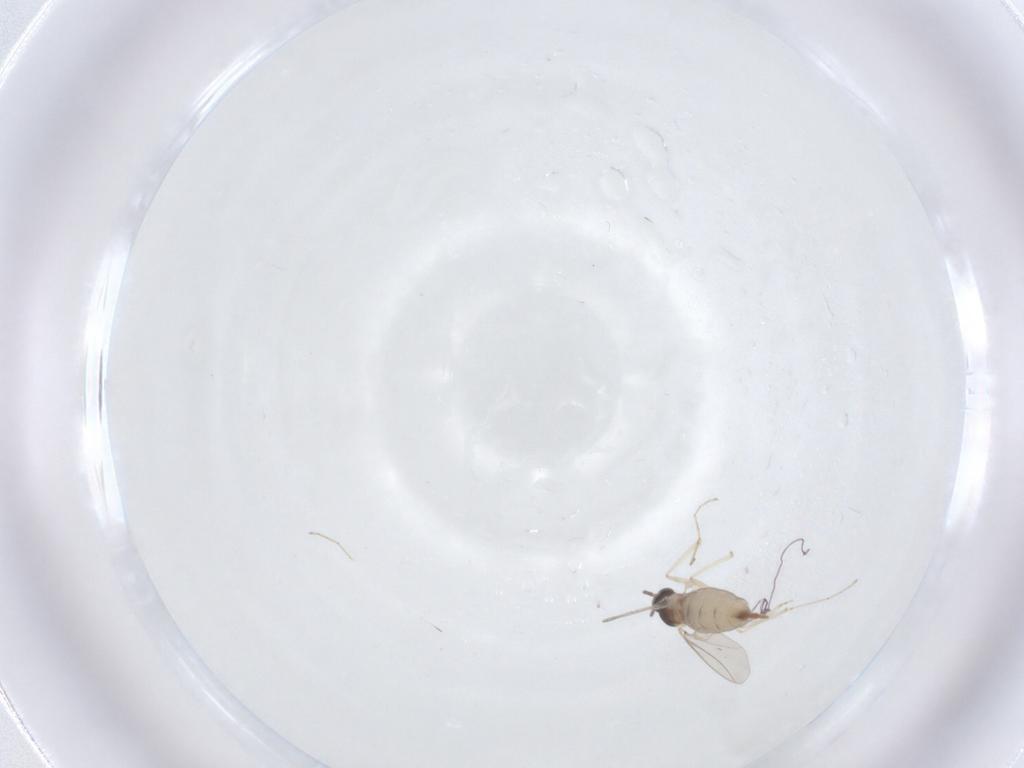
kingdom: Animalia
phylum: Arthropoda
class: Insecta
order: Diptera
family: Cecidomyiidae
